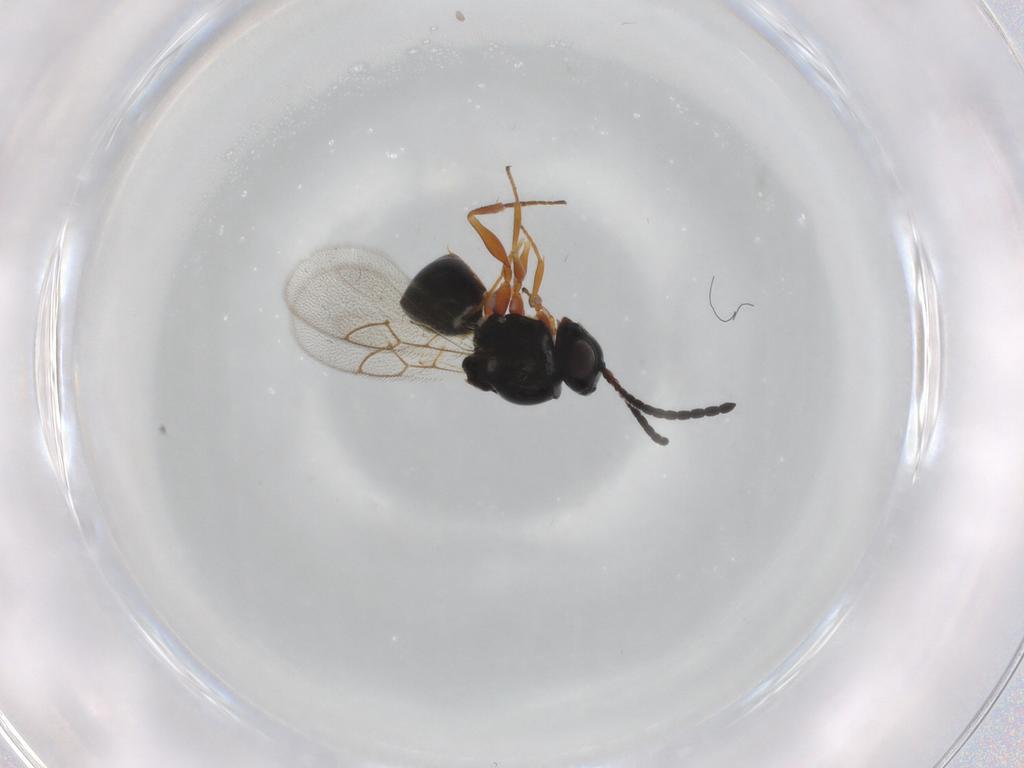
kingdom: Animalia
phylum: Arthropoda
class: Insecta
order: Hymenoptera
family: Figitidae
